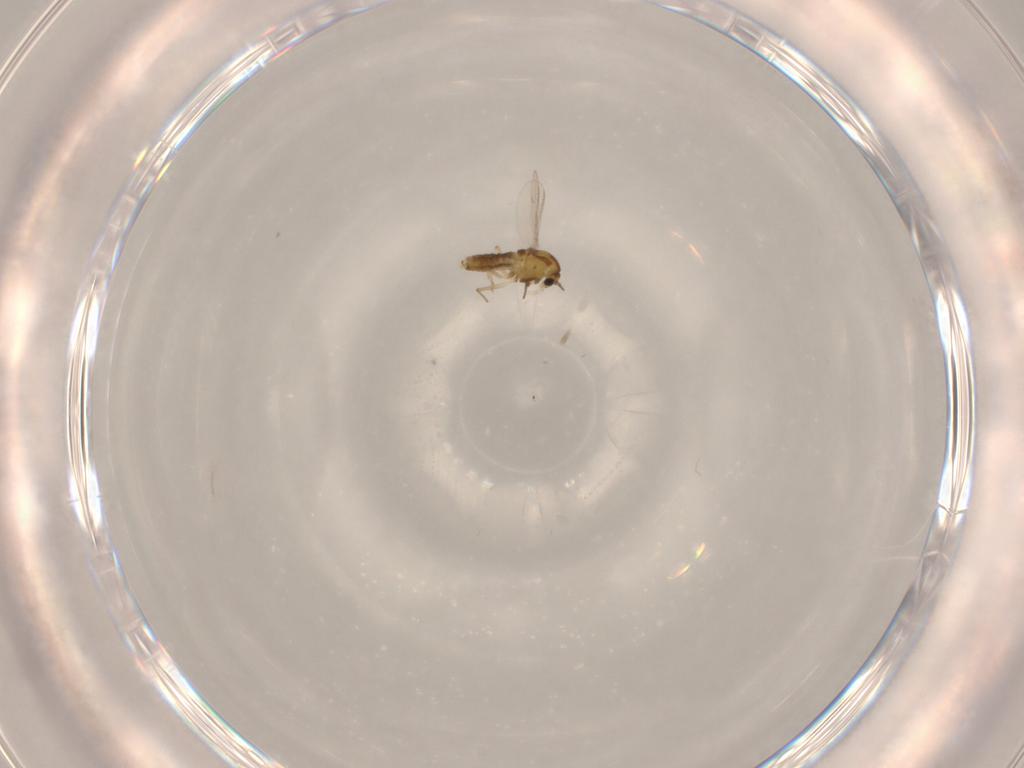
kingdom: Animalia
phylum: Arthropoda
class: Insecta
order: Diptera
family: Chironomidae
